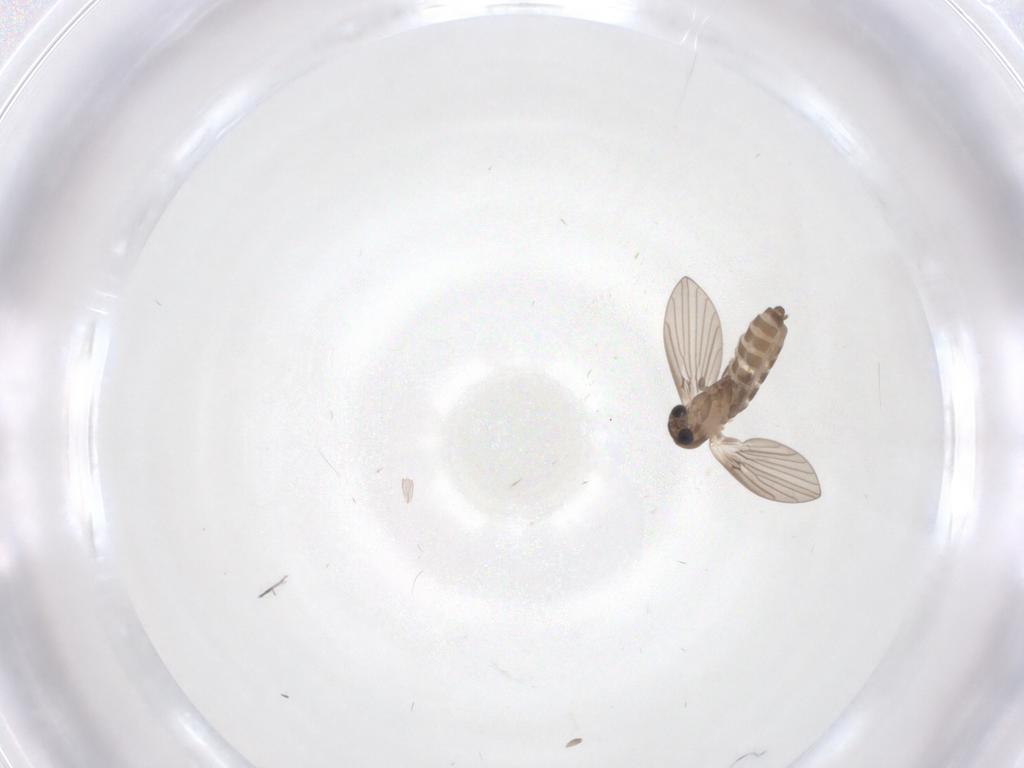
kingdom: Animalia
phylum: Arthropoda
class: Insecta
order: Diptera
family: Psychodidae
